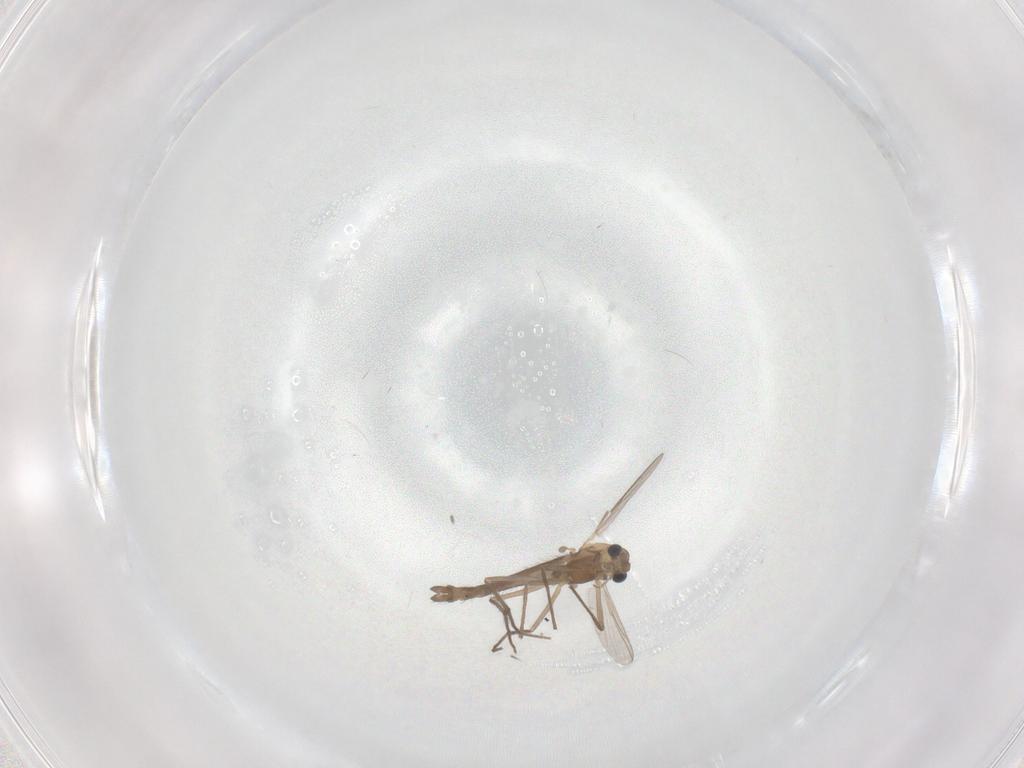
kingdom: Animalia
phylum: Arthropoda
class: Insecta
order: Diptera
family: Chironomidae
